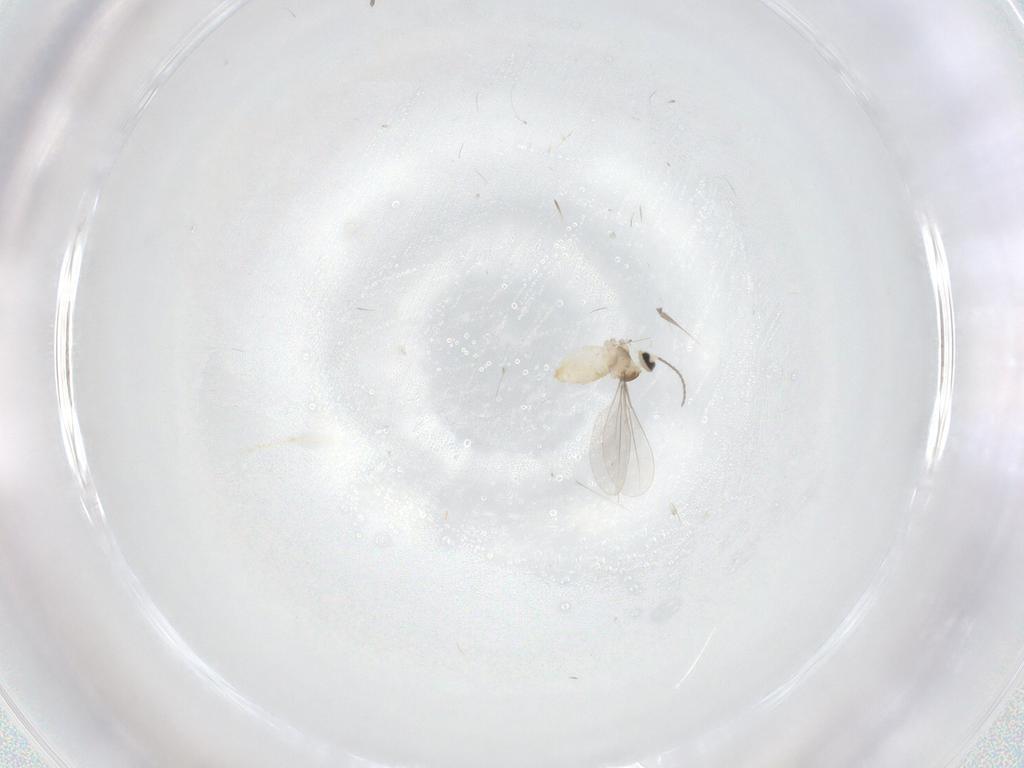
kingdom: Animalia
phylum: Arthropoda
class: Insecta
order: Diptera
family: Cecidomyiidae
